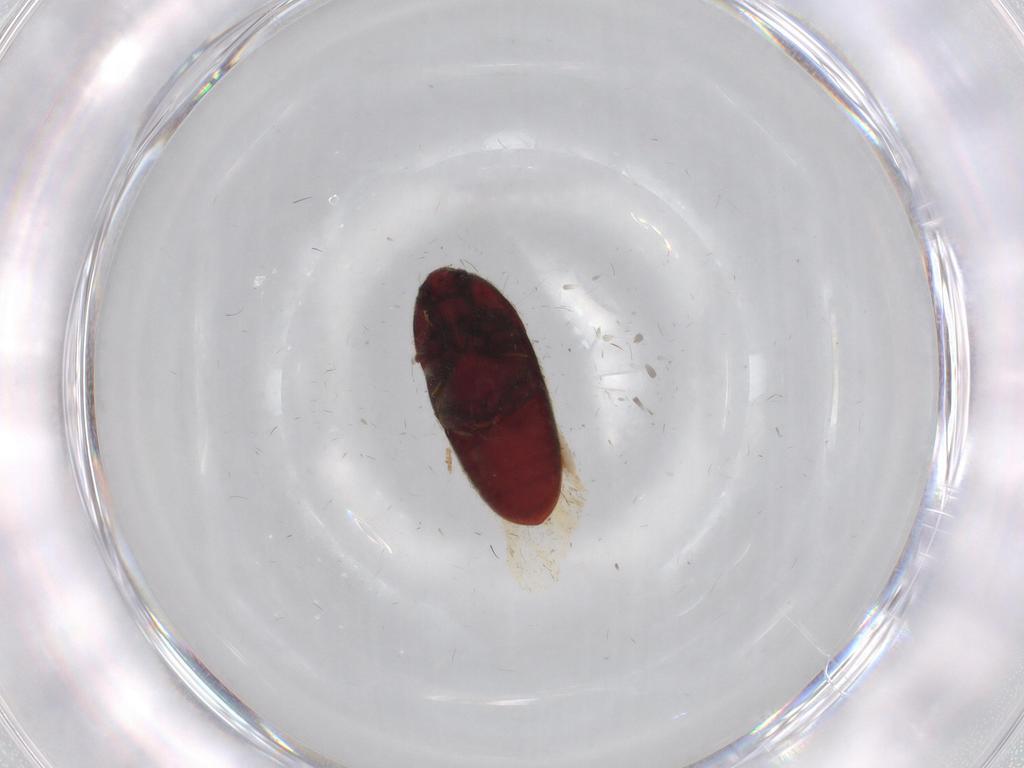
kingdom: Animalia
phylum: Arthropoda
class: Insecta
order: Coleoptera
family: Throscidae
